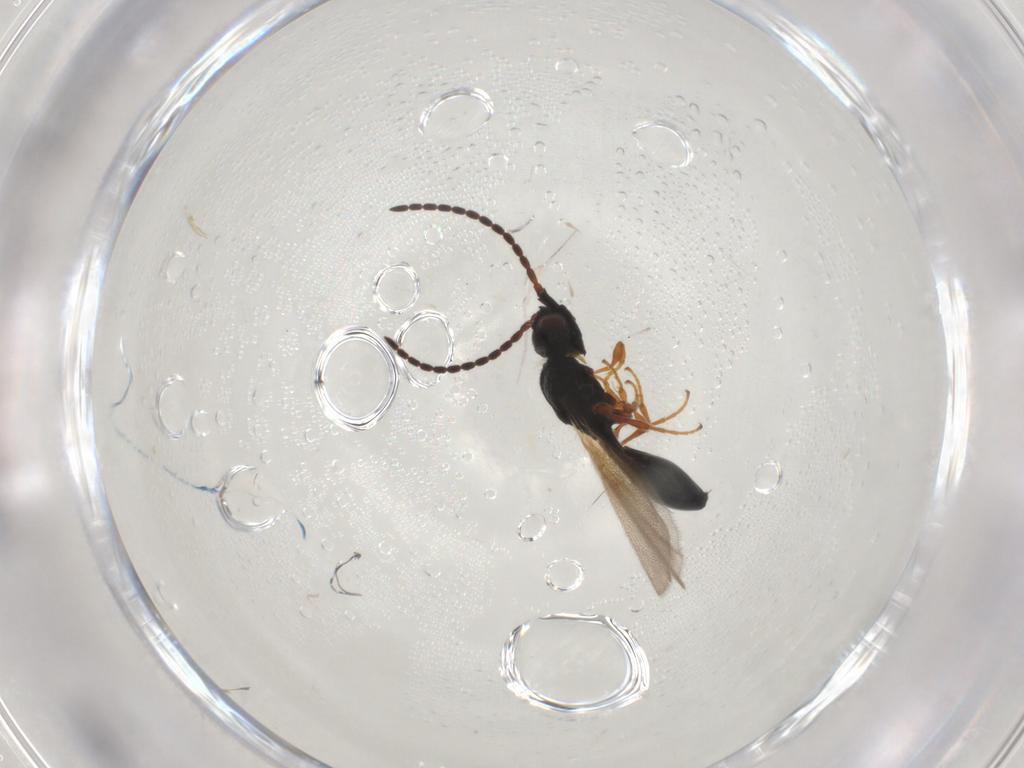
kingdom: Animalia
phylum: Arthropoda
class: Insecta
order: Hymenoptera
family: Diapriidae
